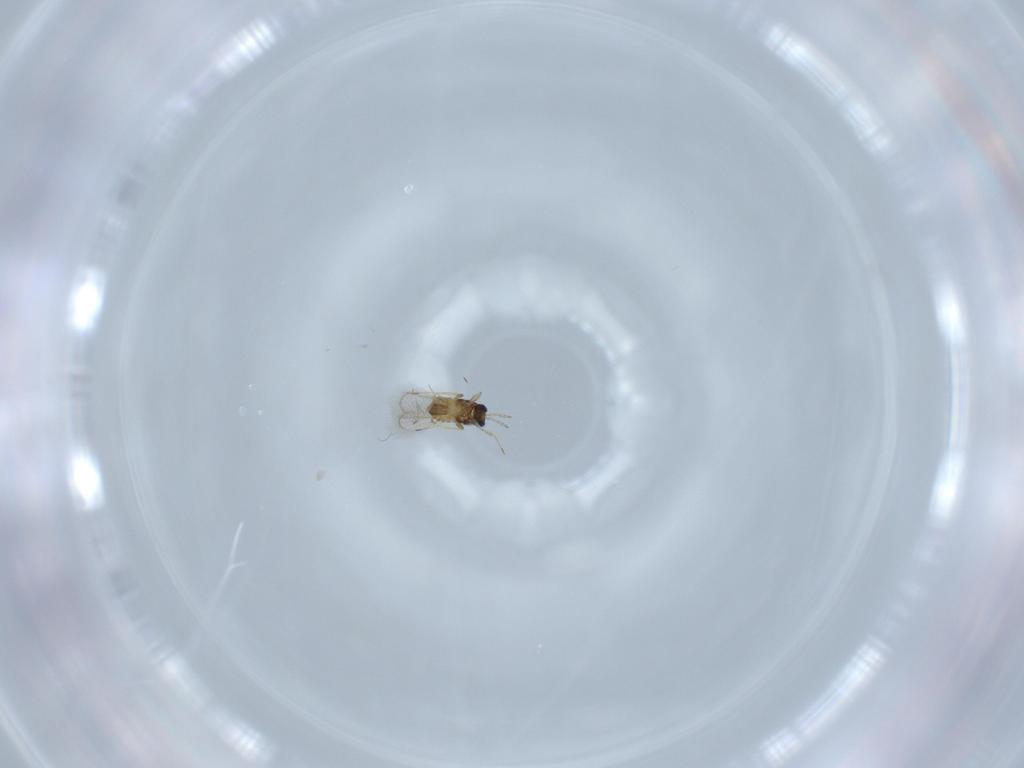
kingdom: Animalia
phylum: Arthropoda
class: Insecta
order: Hymenoptera
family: Trichogrammatidae
